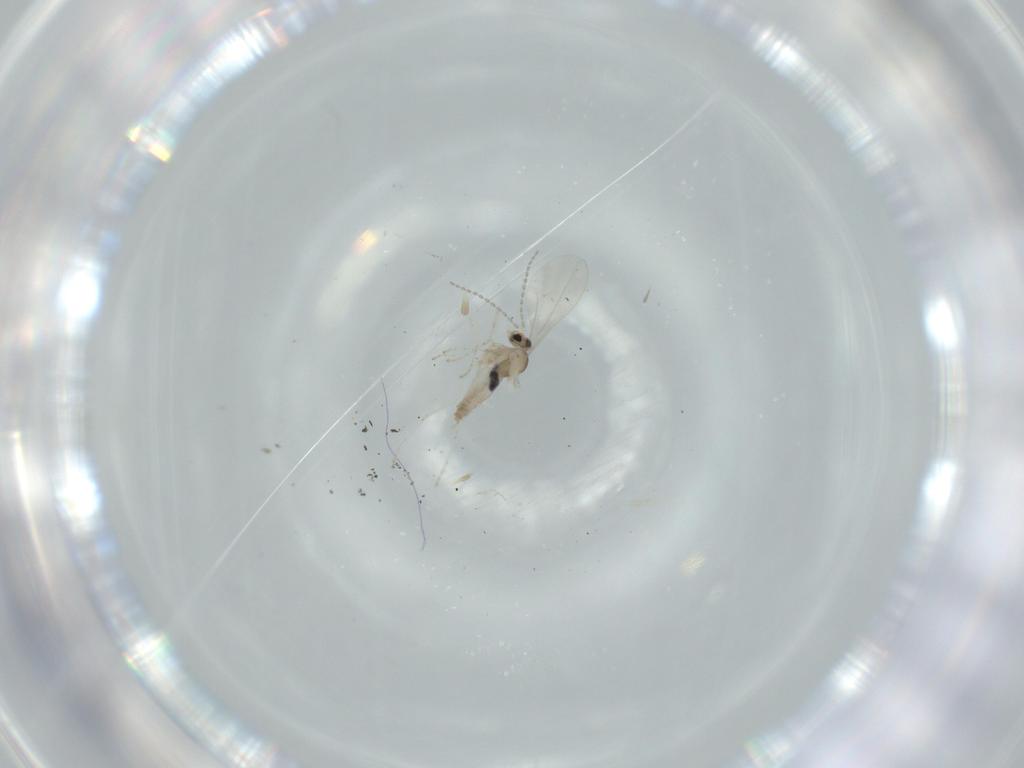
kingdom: Animalia
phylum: Arthropoda
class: Insecta
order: Diptera
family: Cecidomyiidae
